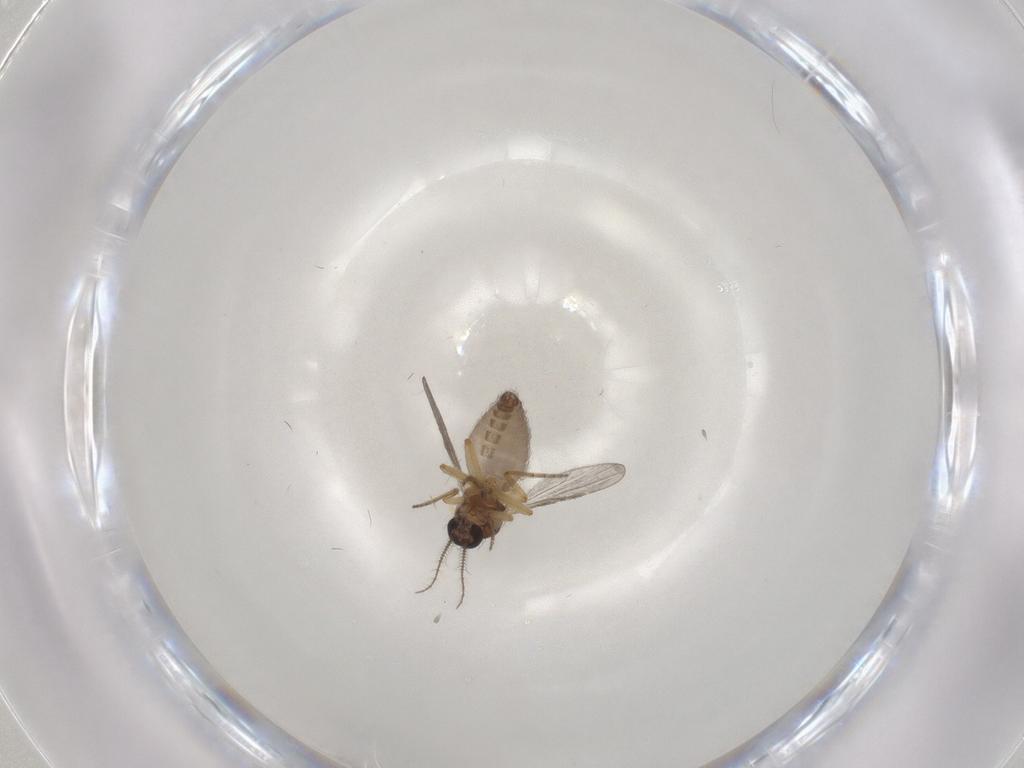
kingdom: Animalia
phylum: Arthropoda
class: Insecta
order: Diptera
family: Ceratopogonidae
